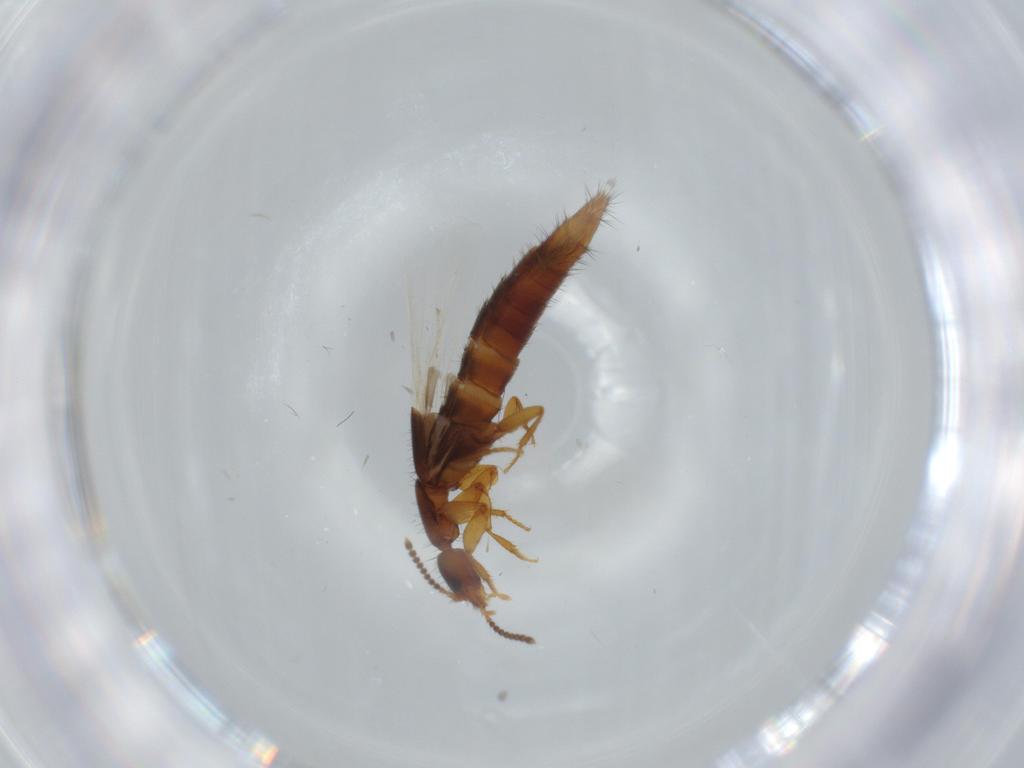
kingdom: Animalia
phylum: Arthropoda
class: Insecta
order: Coleoptera
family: Staphylinidae
